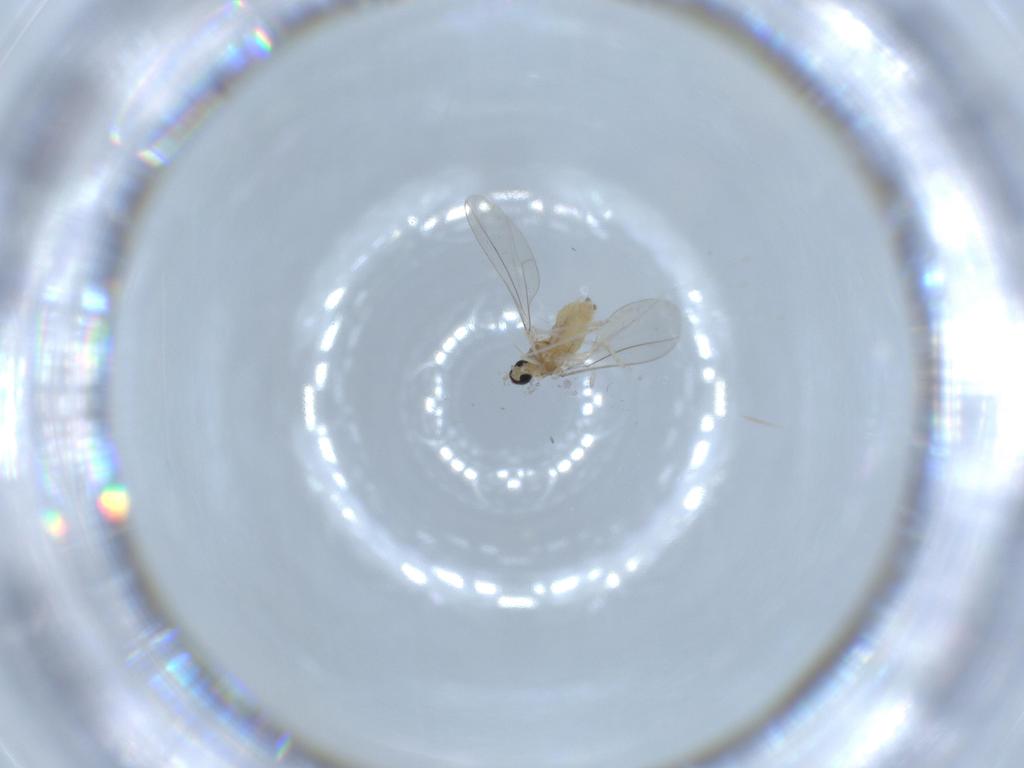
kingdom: Animalia
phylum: Arthropoda
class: Insecta
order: Diptera
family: Cecidomyiidae
